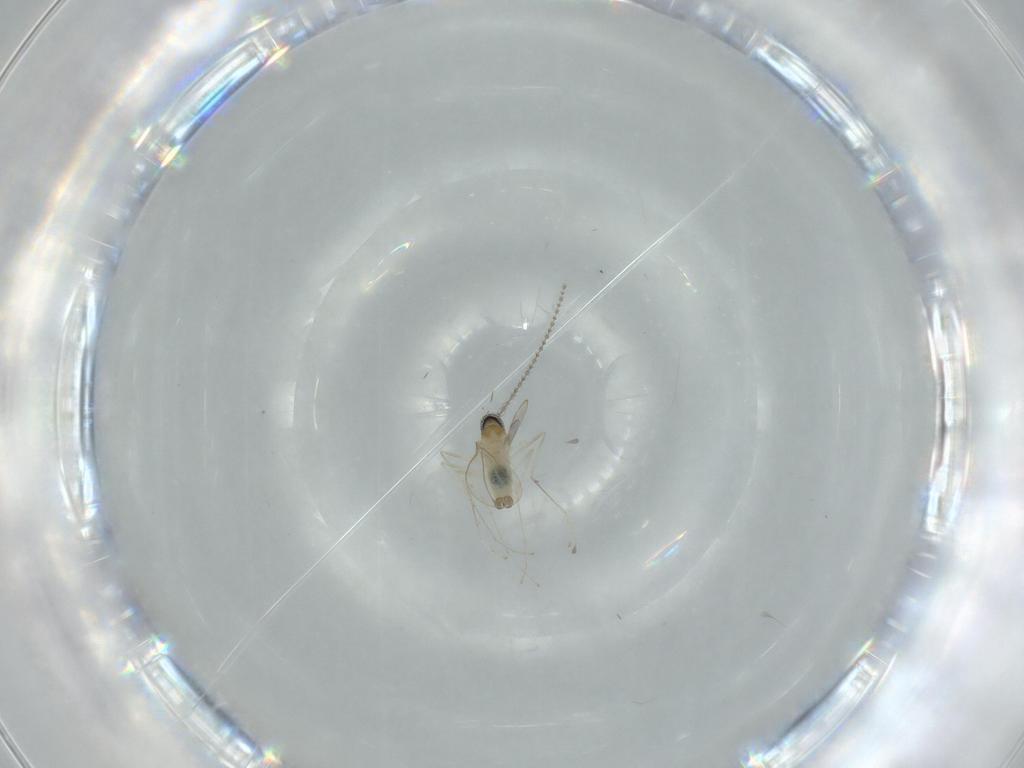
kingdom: Animalia
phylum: Arthropoda
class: Insecta
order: Diptera
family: Cecidomyiidae
